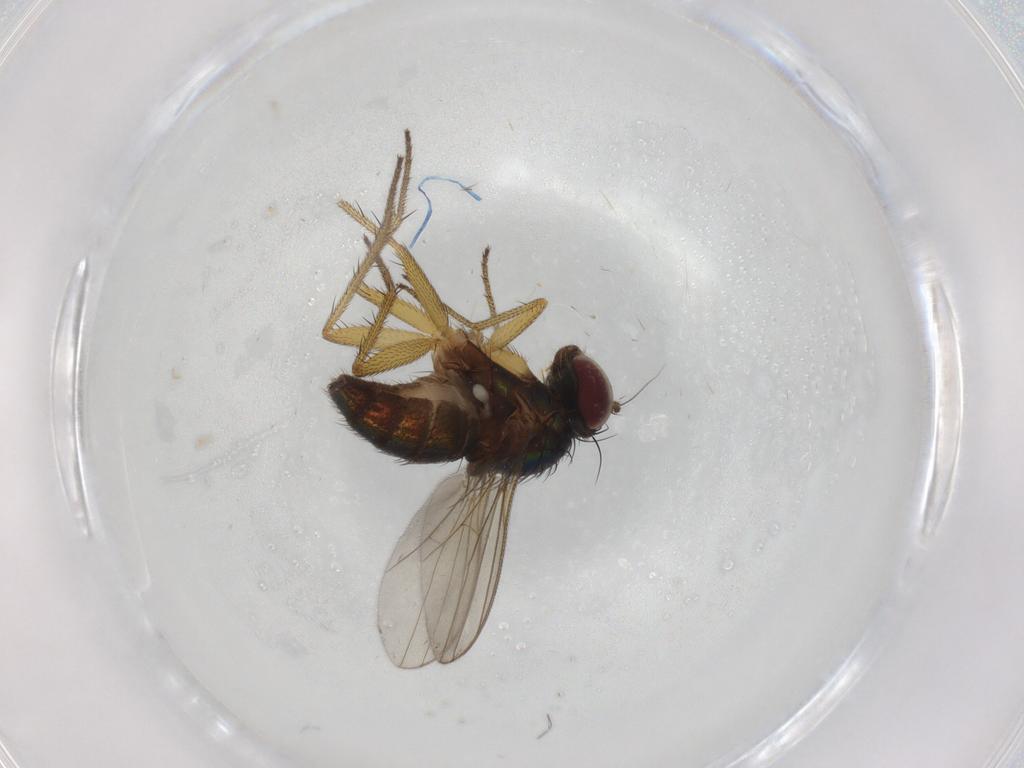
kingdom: Animalia
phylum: Arthropoda
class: Insecta
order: Diptera
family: Dolichopodidae
